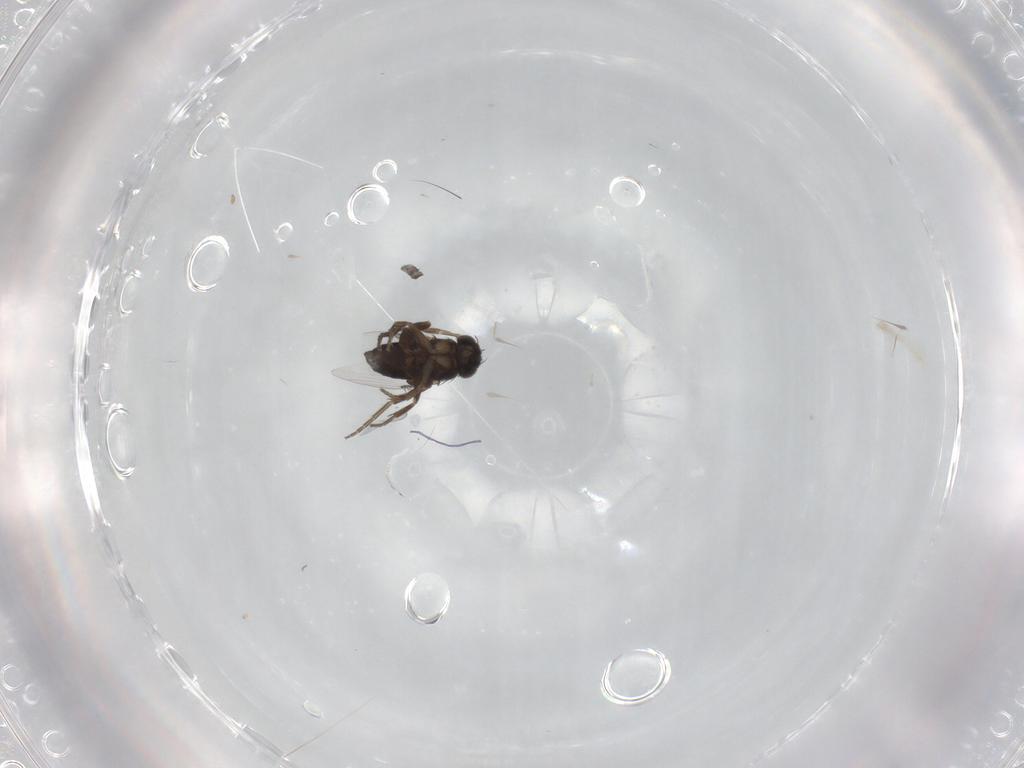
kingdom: Animalia
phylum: Arthropoda
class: Insecta
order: Diptera
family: Phoridae
